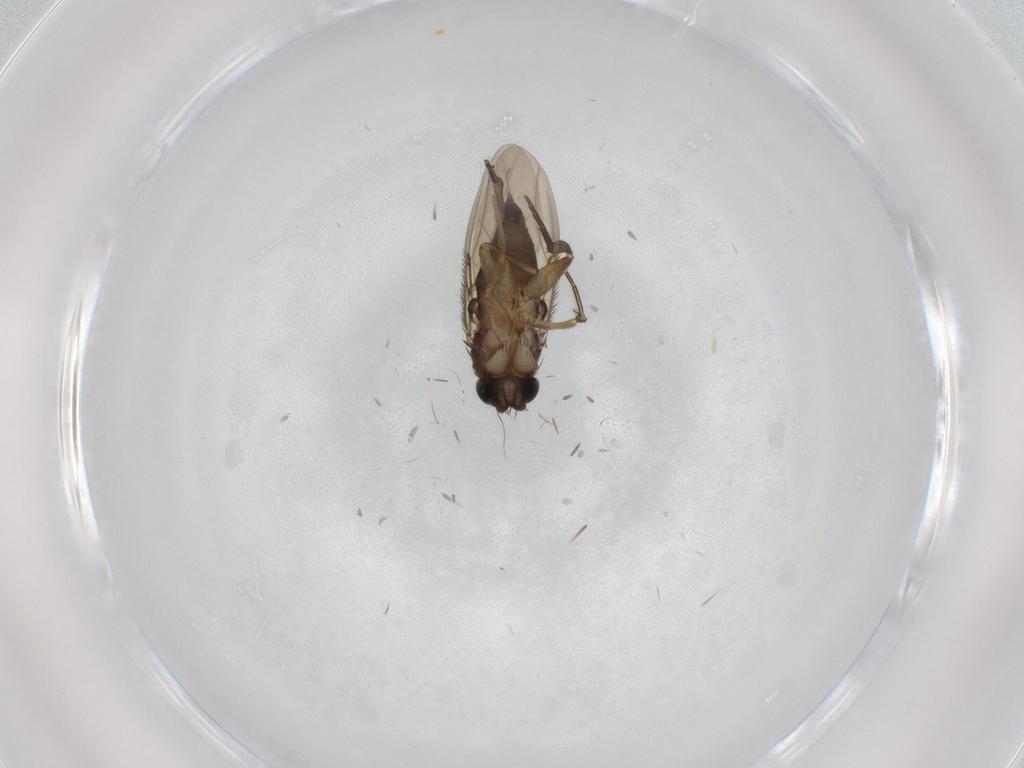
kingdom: Animalia
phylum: Arthropoda
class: Insecta
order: Diptera
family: Phoridae
